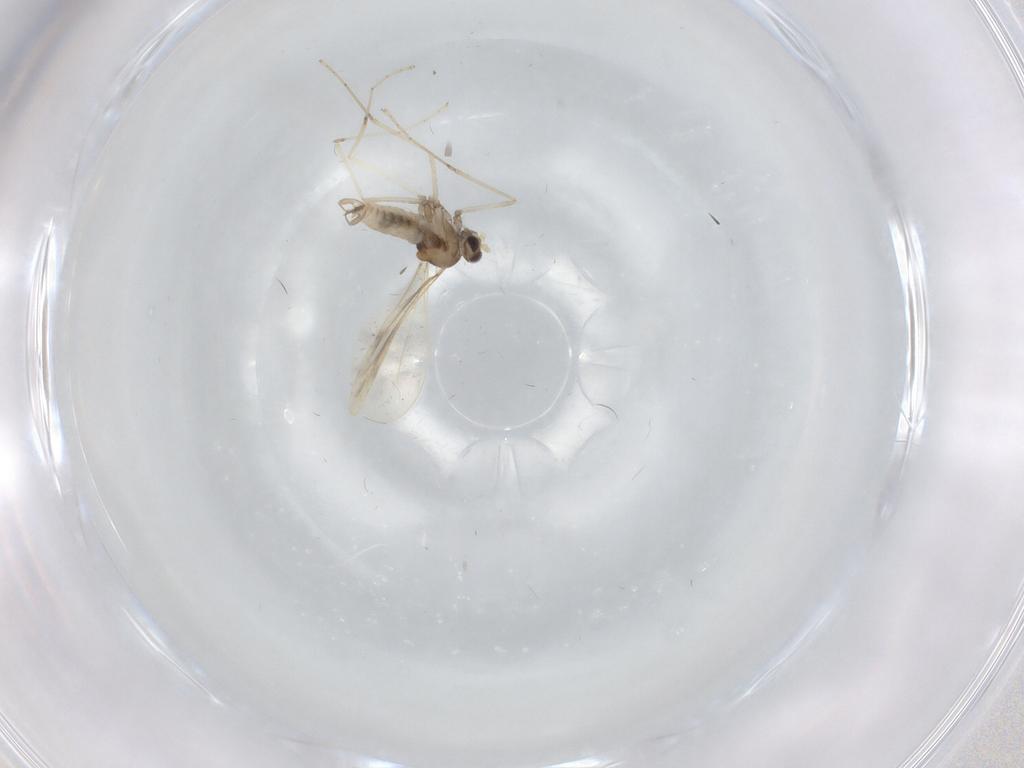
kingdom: Animalia
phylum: Arthropoda
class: Insecta
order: Diptera
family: Cecidomyiidae
